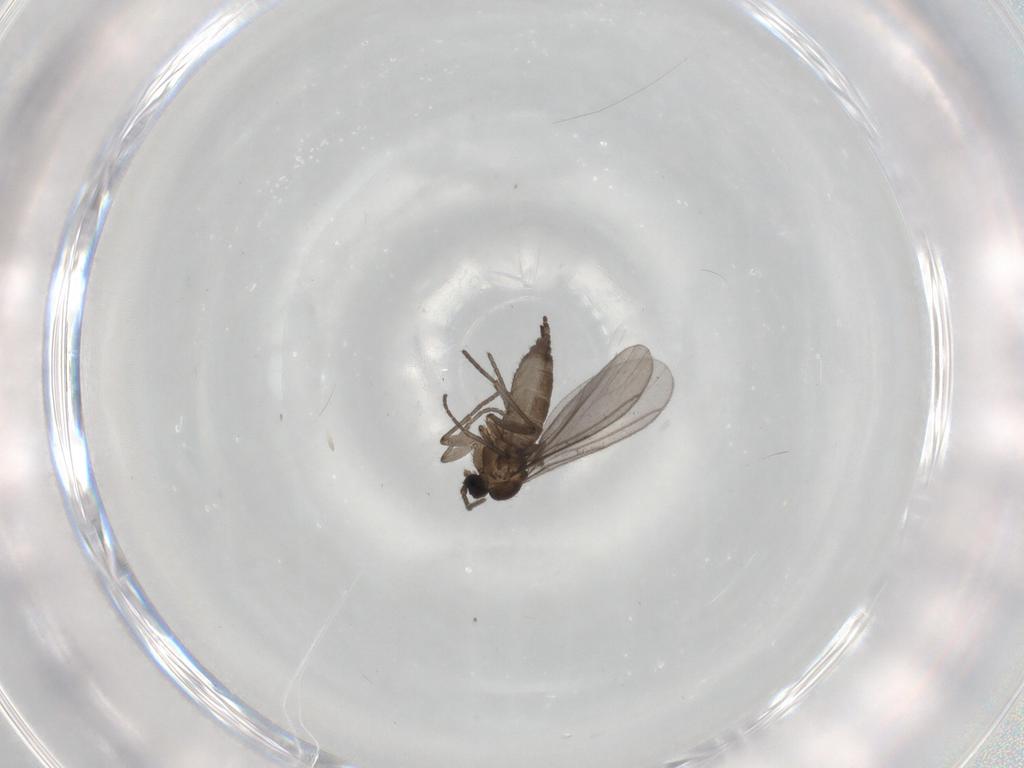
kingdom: Animalia
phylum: Arthropoda
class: Insecta
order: Diptera
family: Sciaridae
